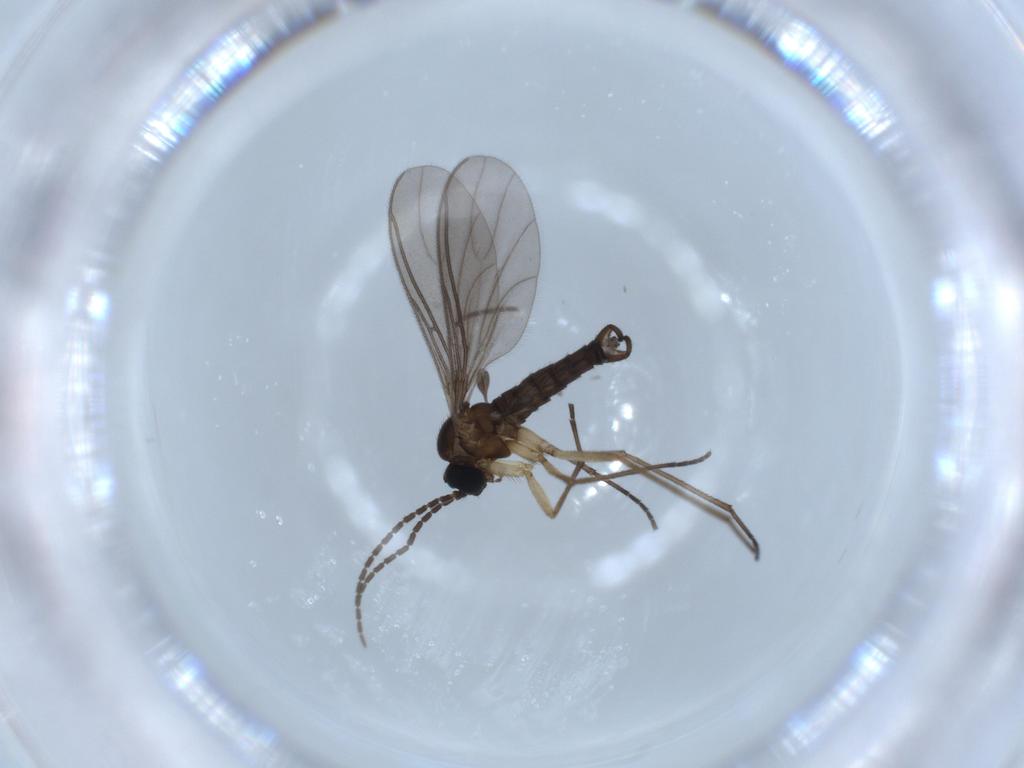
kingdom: Animalia
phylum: Arthropoda
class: Insecta
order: Diptera
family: Sciaridae
